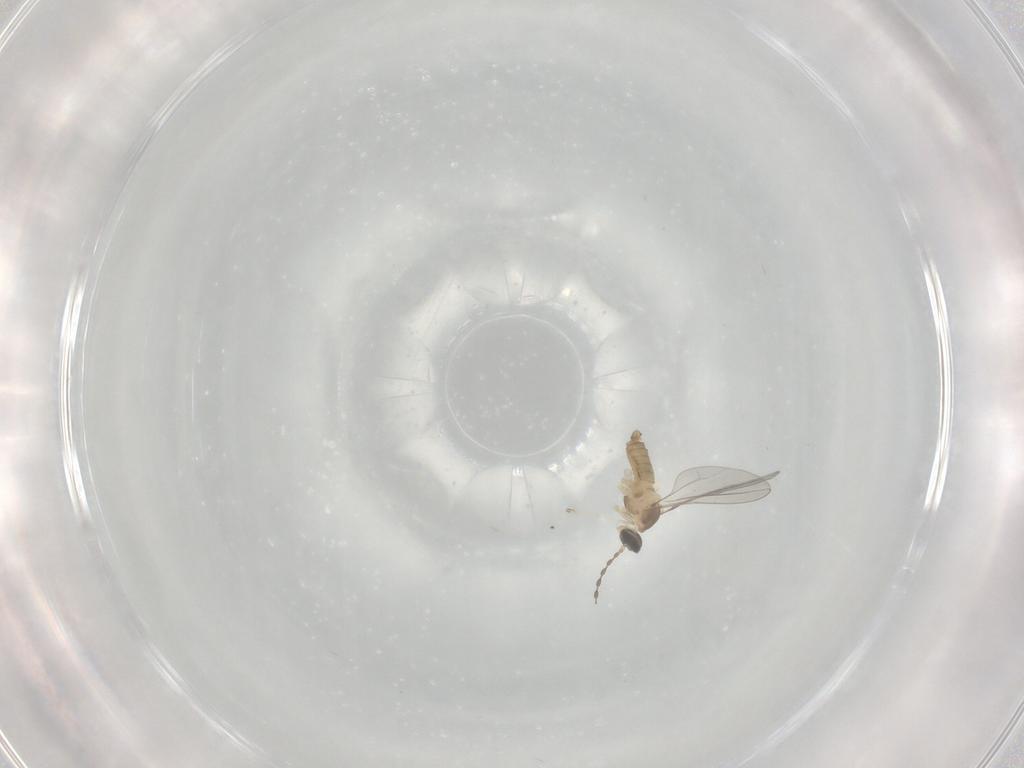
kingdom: Animalia
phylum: Arthropoda
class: Insecta
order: Diptera
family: Cecidomyiidae
